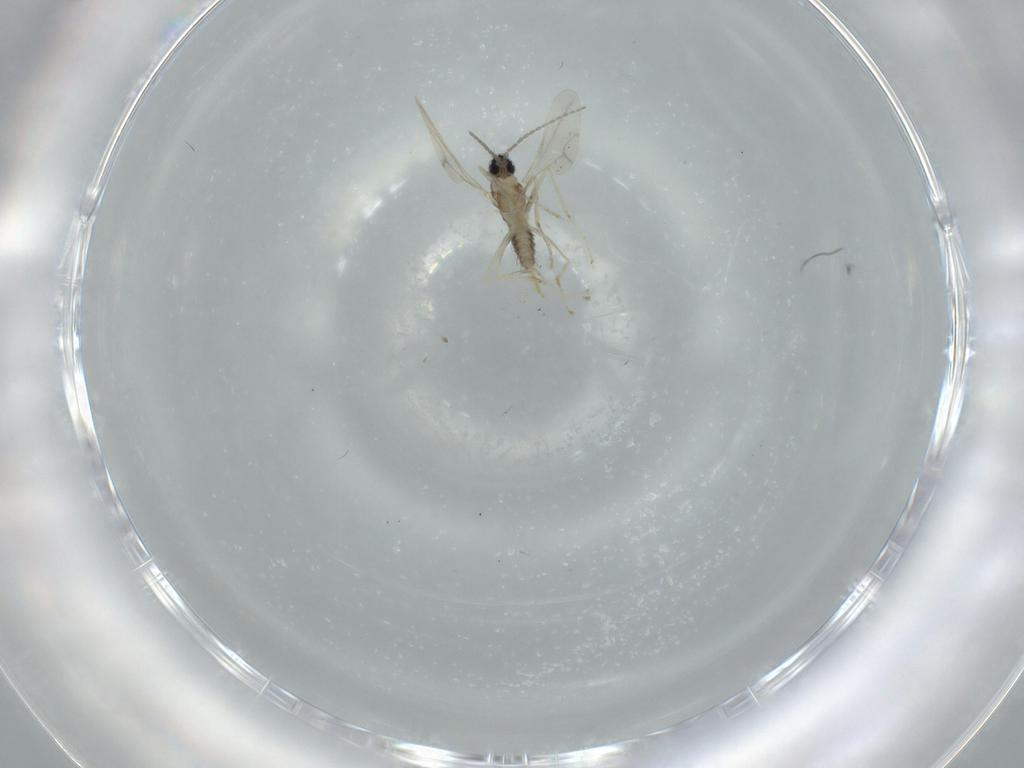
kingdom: Animalia
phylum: Arthropoda
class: Insecta
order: Diptera
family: Cecidomyiidae
